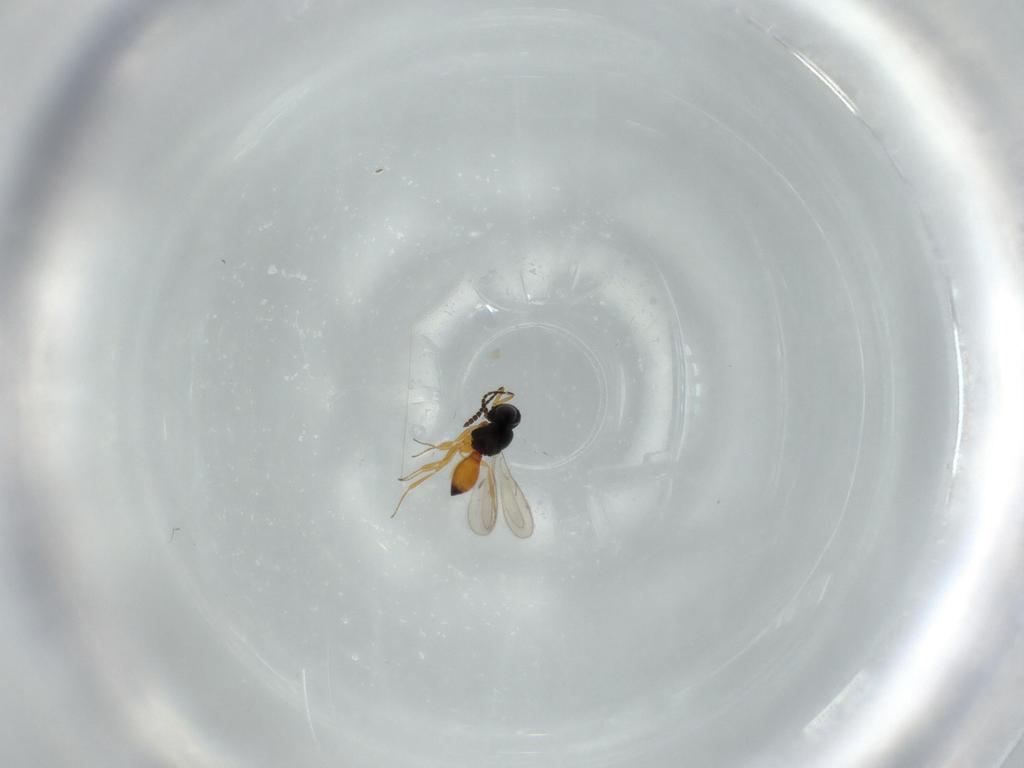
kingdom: Animalia
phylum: Arthropoda
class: Insecta
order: Hymenoptera
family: Scelionidae
